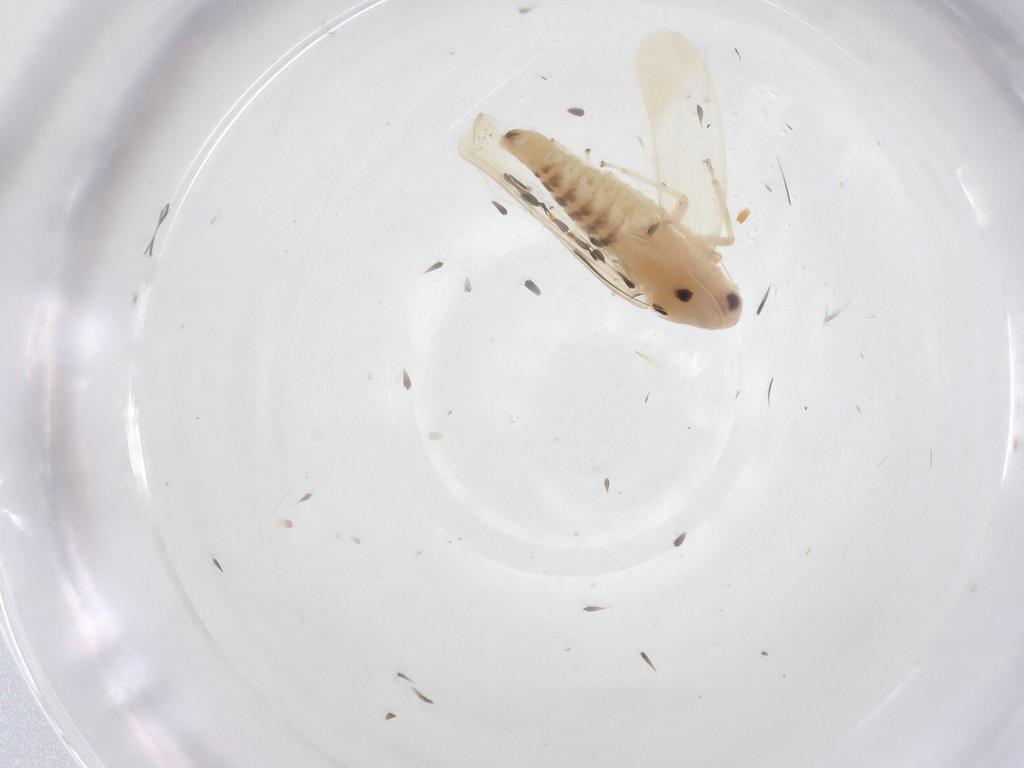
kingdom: Animalia
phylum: Arthropoda
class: Insecta
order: Hemiptera
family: Cicadellidae
